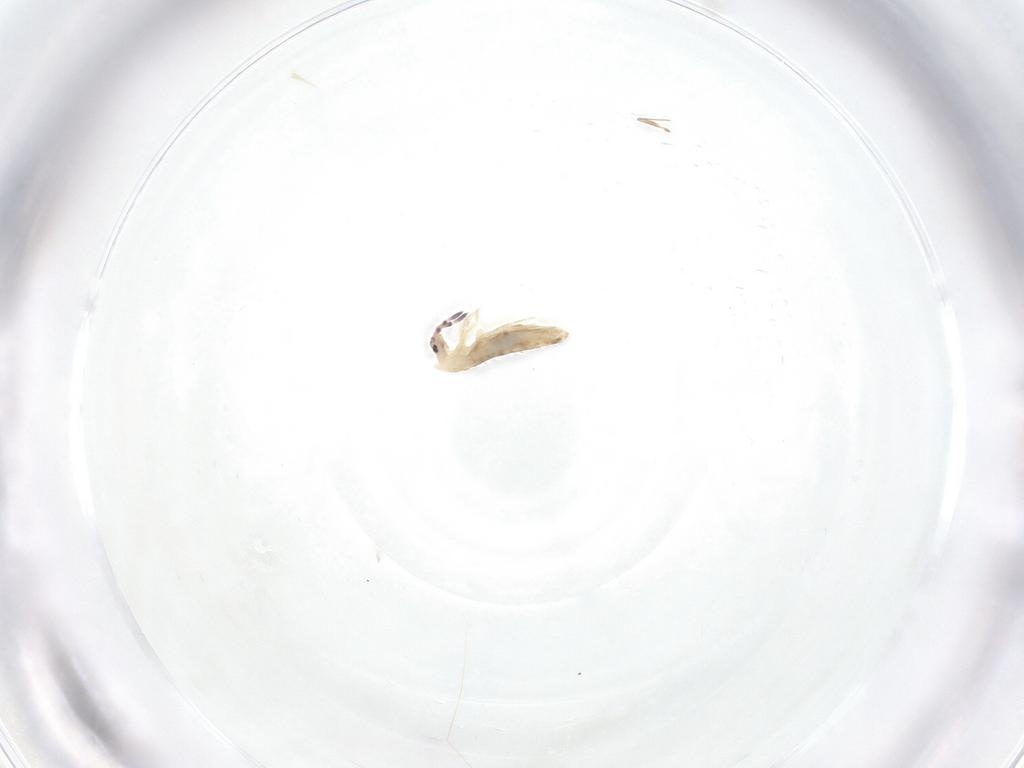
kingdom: Animalia
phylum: Arthropoda
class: Collembola
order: Entomobryomorpha
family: Entomobryidae
